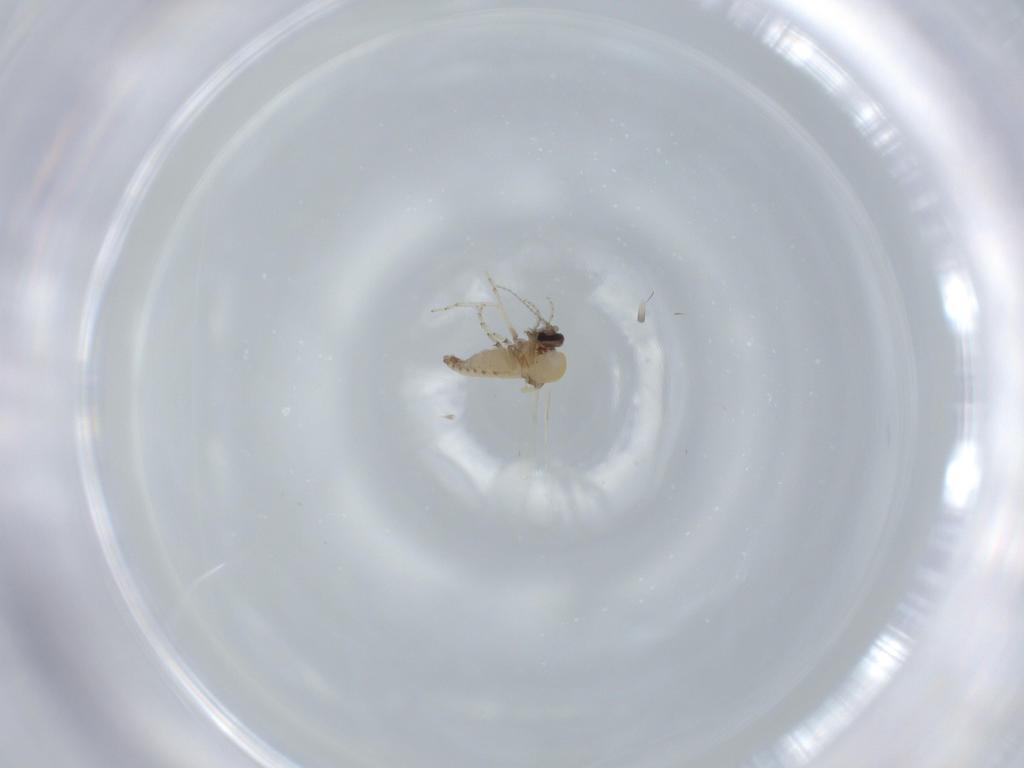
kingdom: Animalia
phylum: Arthropoda
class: Insecta
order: Diptera
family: Ceratopogonidae
